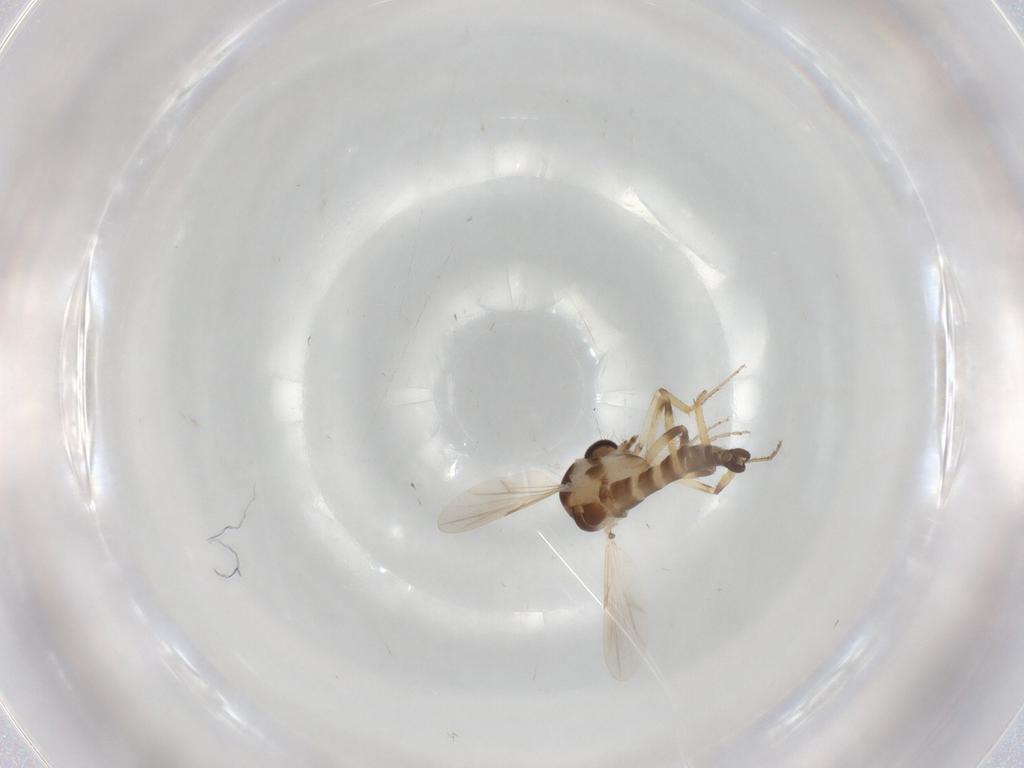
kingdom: Animalia
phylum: Arthropoda
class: Insecta
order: Diptera
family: Ceratopogonidae
